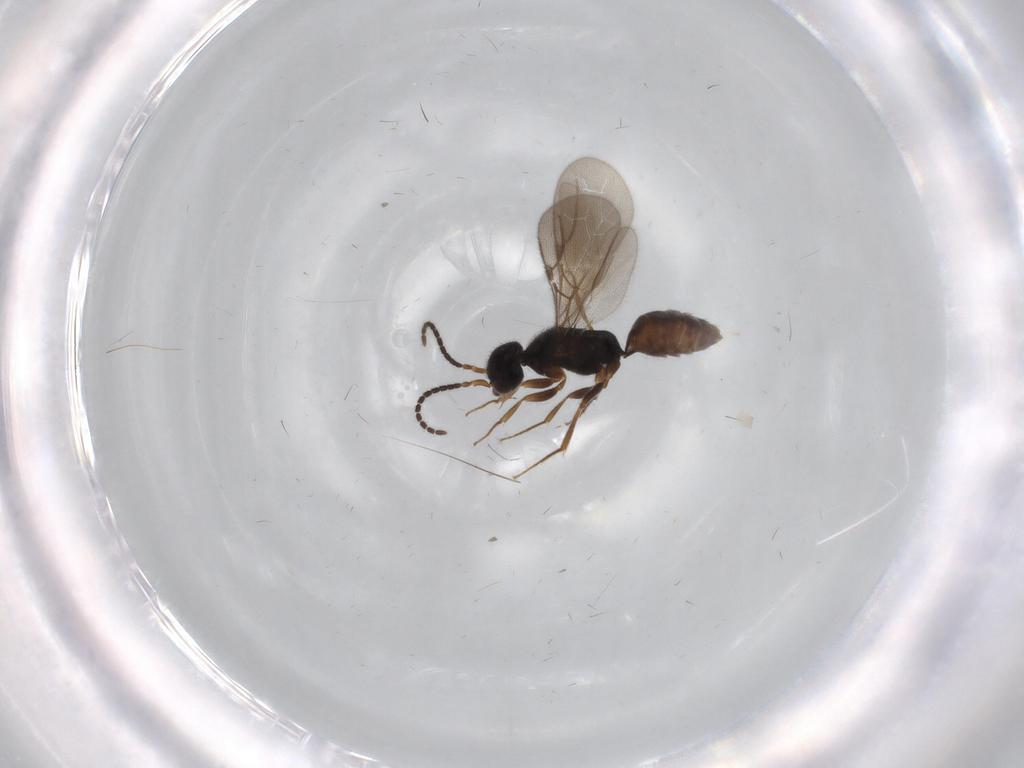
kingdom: Animalia
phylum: Arthropoda
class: Insecta
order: Hymenoptera
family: Bethylidae
